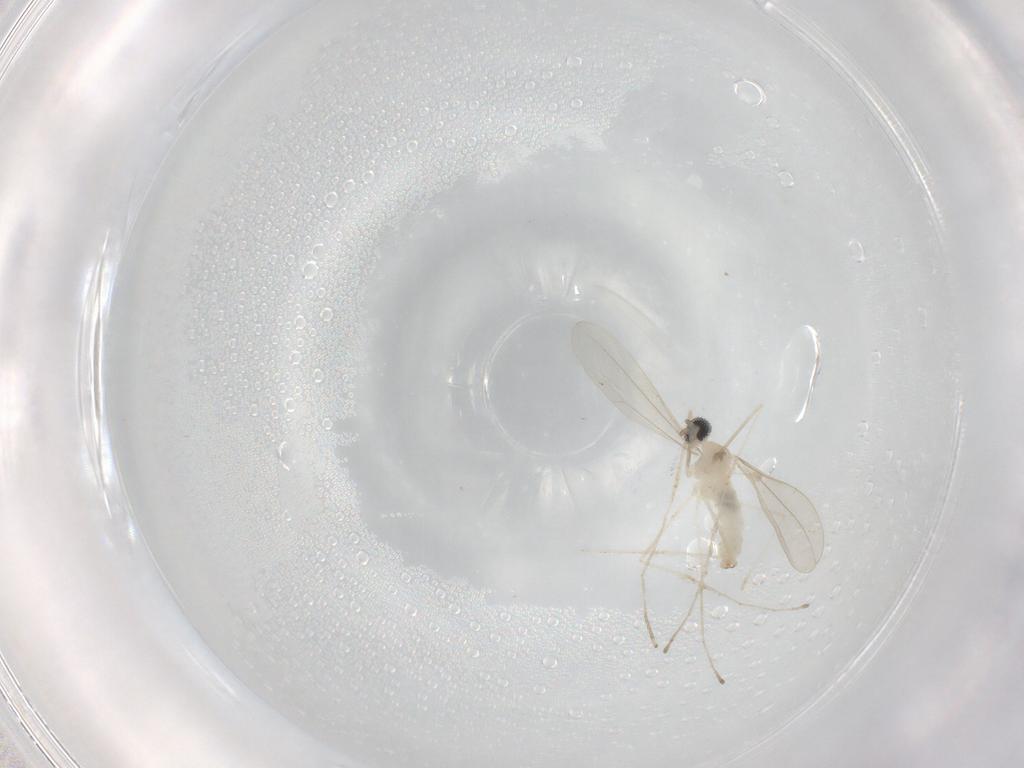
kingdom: Animalia
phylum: Arthropoda
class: Insecta
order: Diptera
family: Cecidomyiidae
